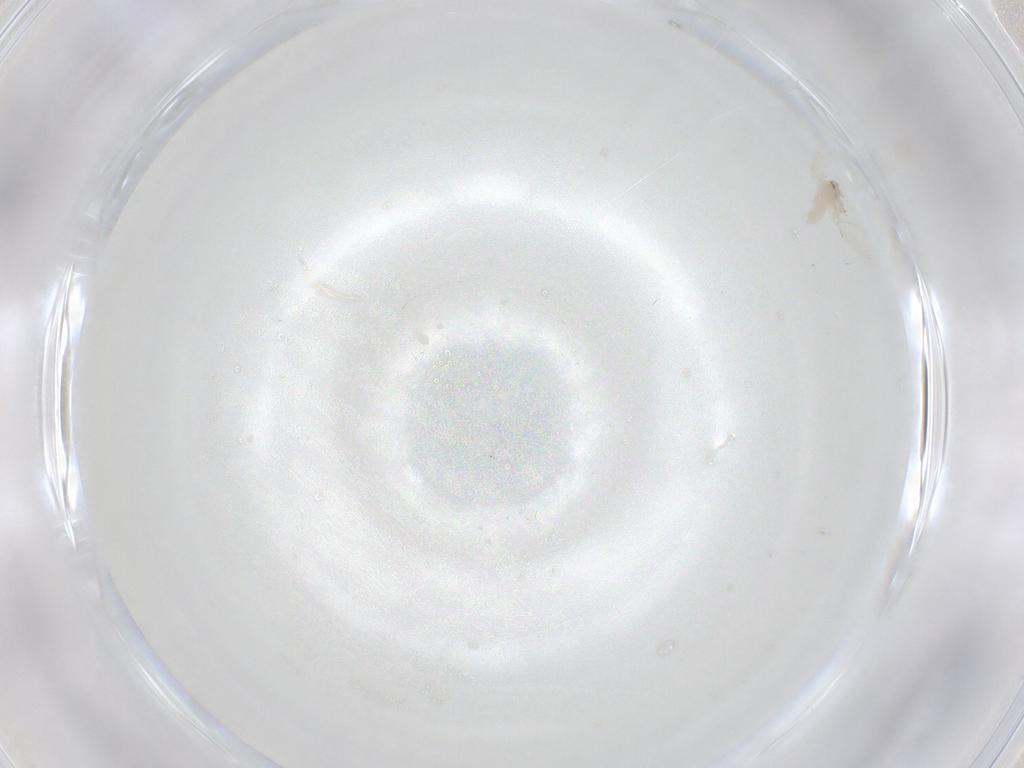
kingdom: Animalia
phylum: Arthropoda
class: Insecta
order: Hemiptera
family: Aleyrodidae
